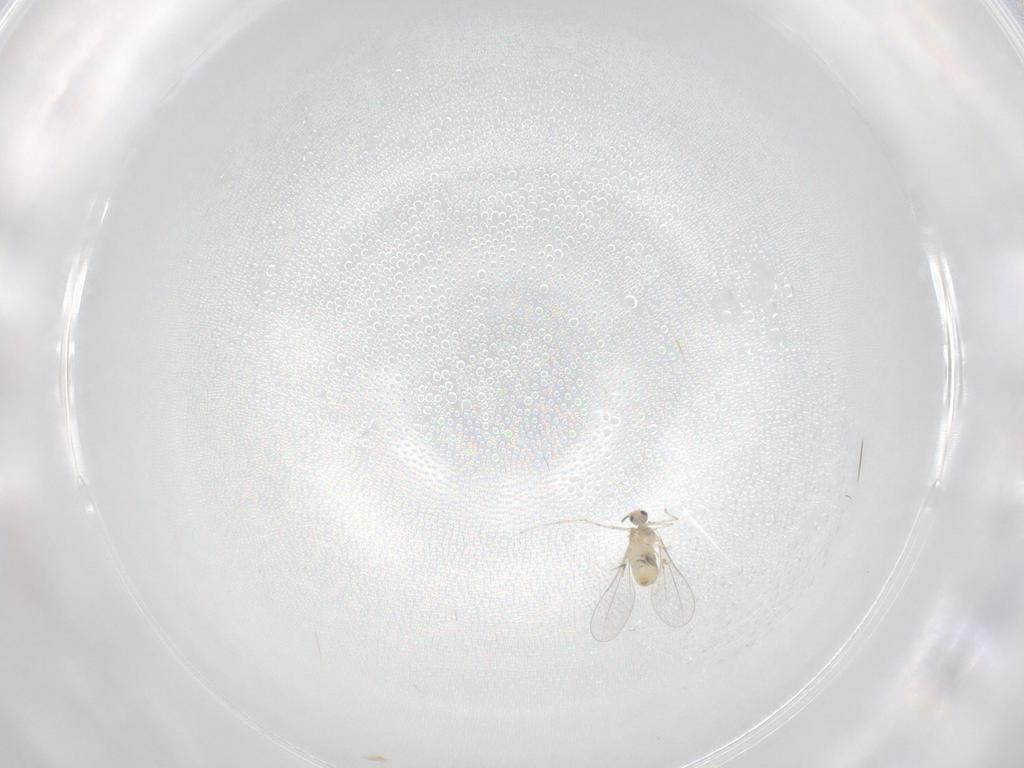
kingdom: Animalia
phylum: Arthropoda
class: Insecta
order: Diptera
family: Cecidomyiidae
